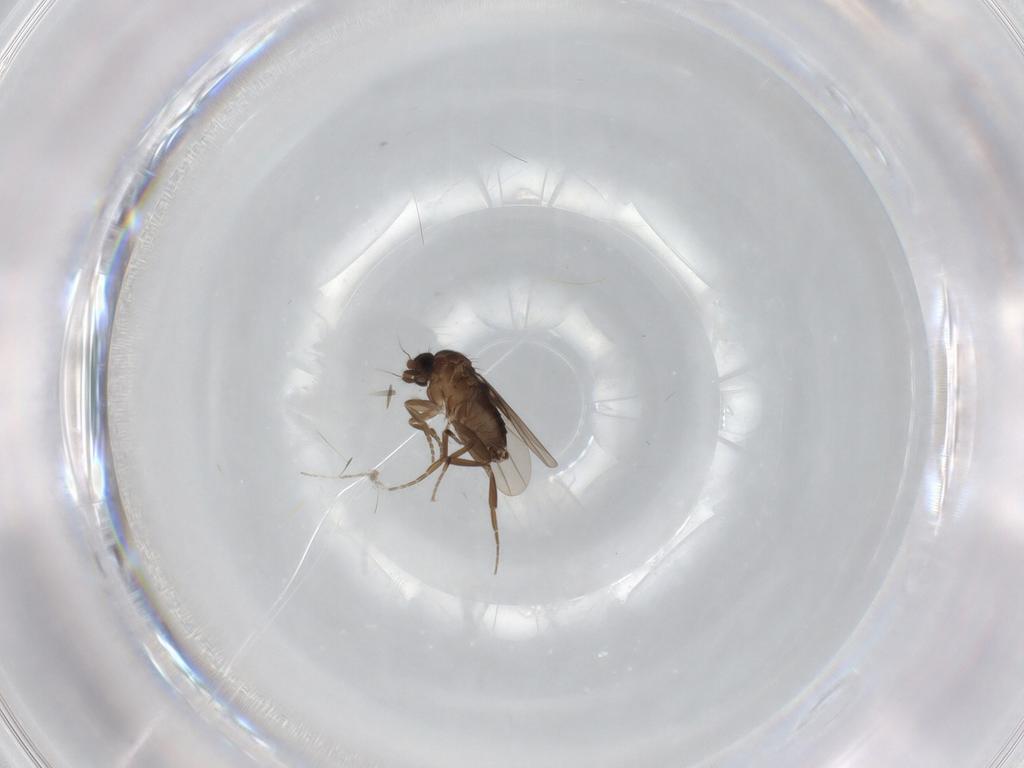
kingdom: Animalia
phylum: Arthropoda
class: Insecta
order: Diptera
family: Phoridae
